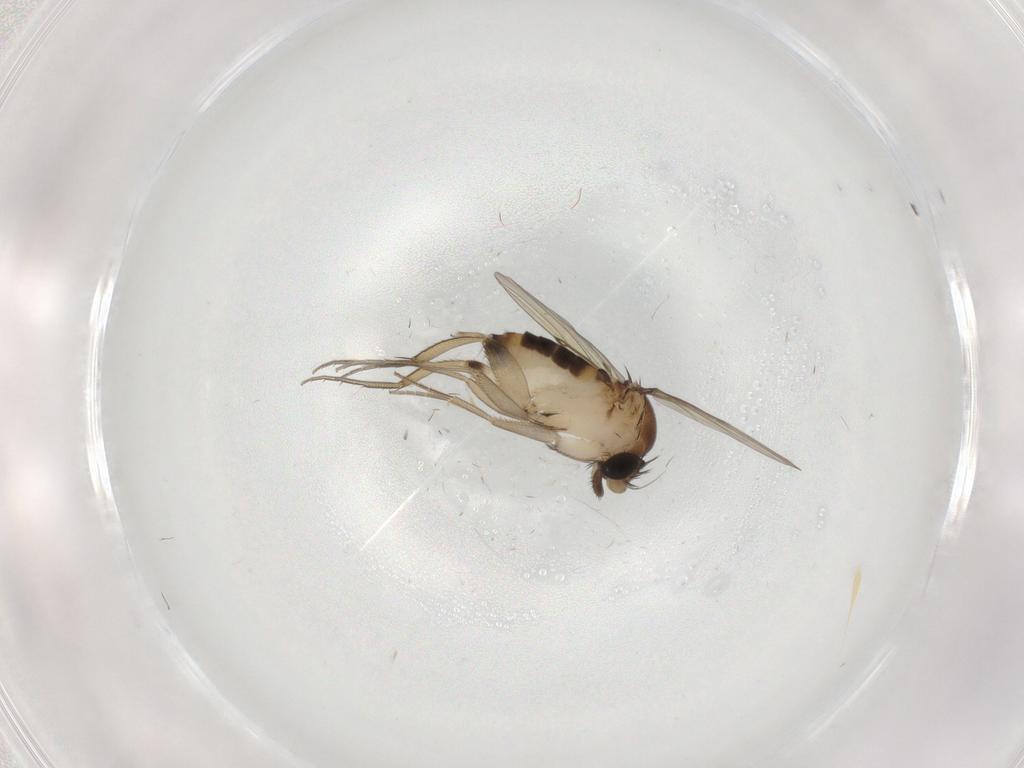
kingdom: Animalia
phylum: Arthropoda
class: Insecta
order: Diptera
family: Phoridae
